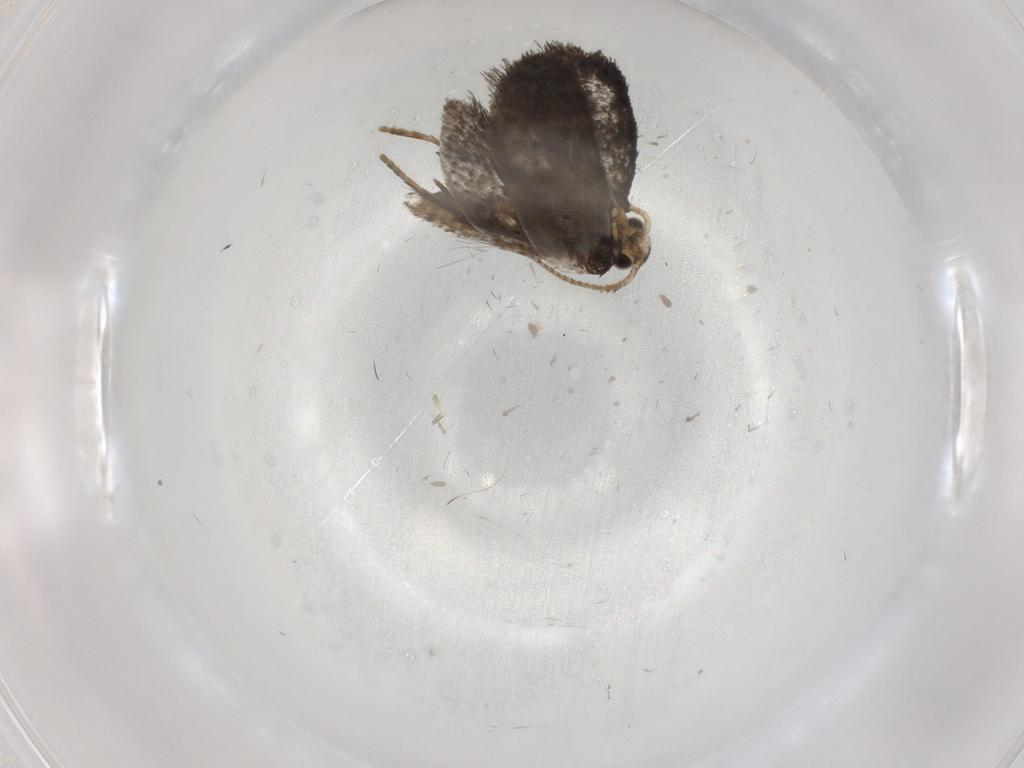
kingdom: Animalia
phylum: Arthropoda
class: Insecta
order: Lepidoptera
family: Psychidae
